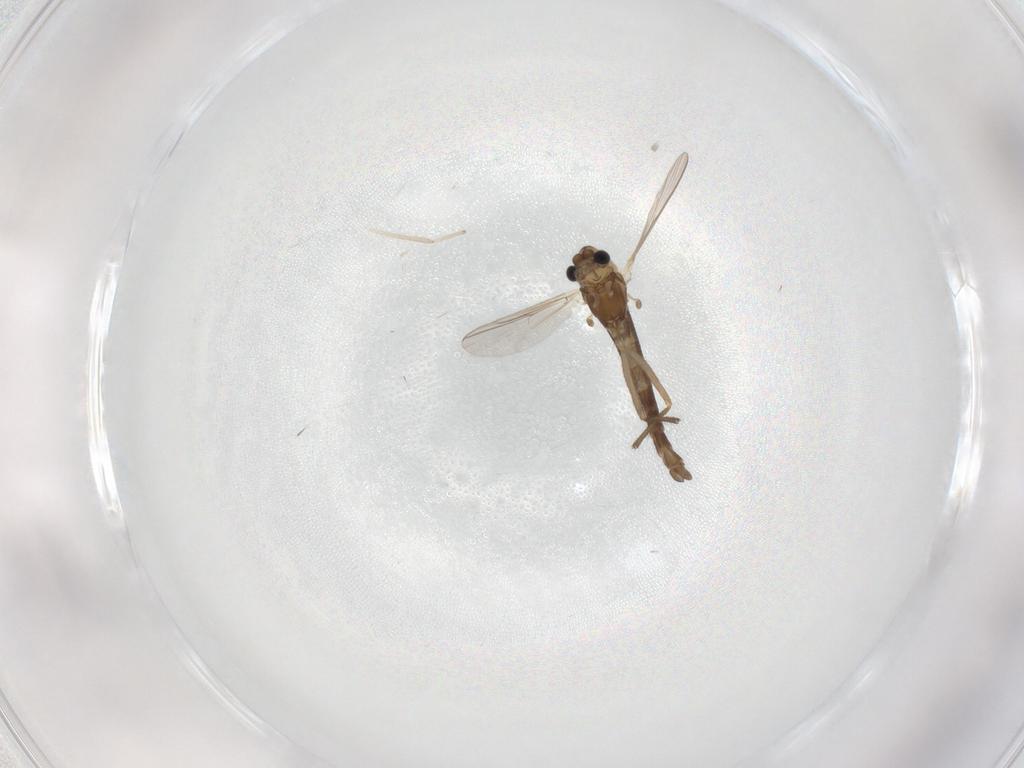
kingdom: Animalia
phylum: Arthropoda
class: Insecta
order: Diptera
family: Chironomidae
